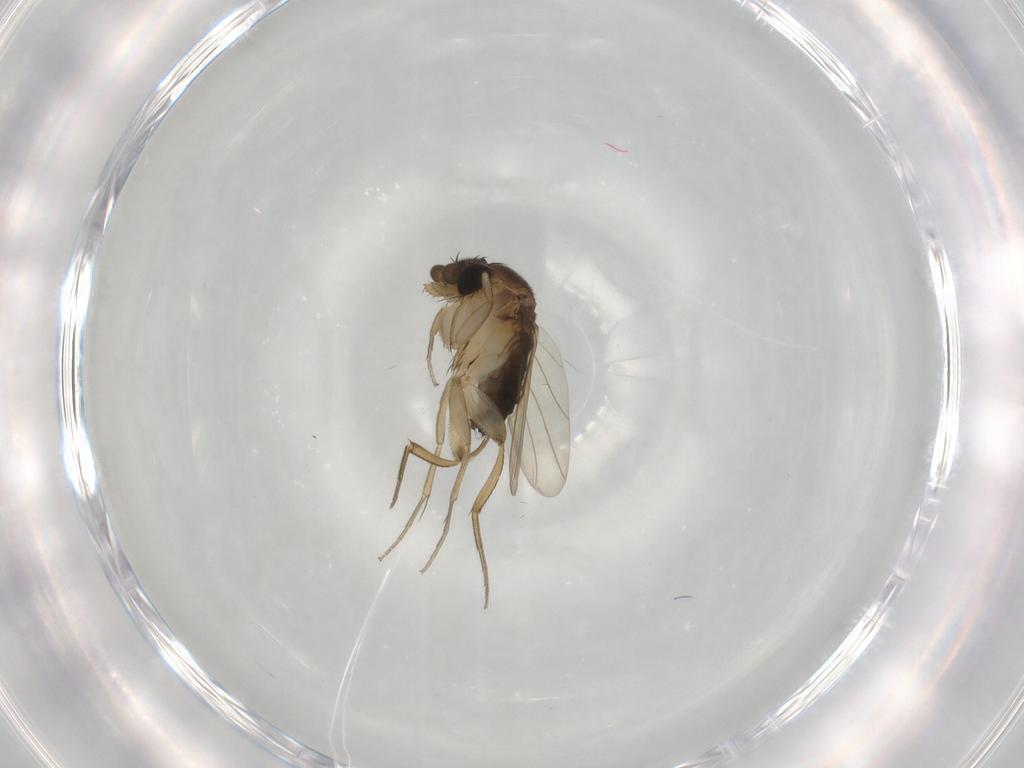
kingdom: Animalia
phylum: Arthropoda
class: Insecta
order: Diptera
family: Phoridae
